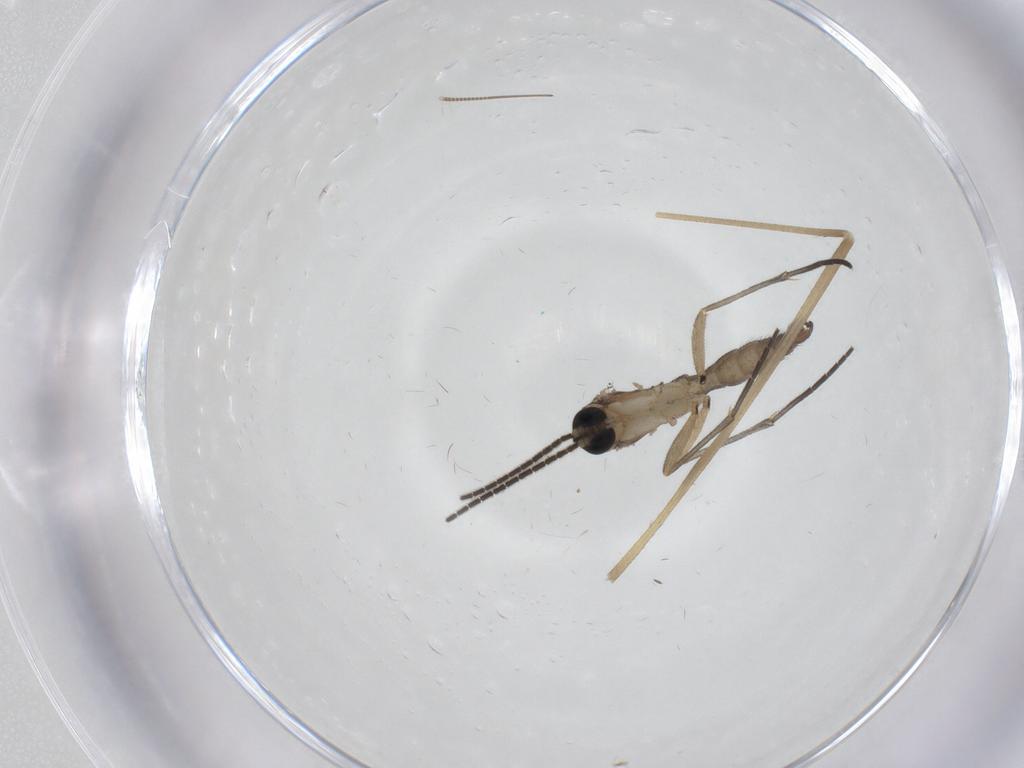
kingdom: Animalia
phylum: Arthropoda
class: Insecta
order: Diptera
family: Sciaridae
